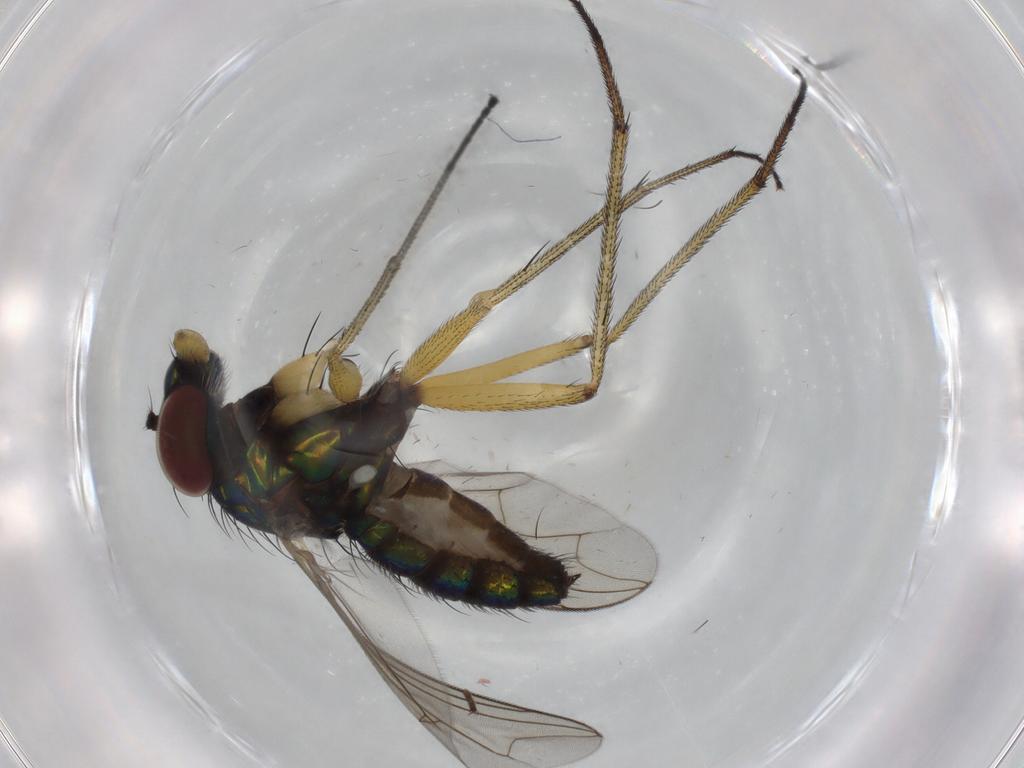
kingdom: Animalia
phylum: Arthropoda
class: Insecta
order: Diptera
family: Dolichopodidae
